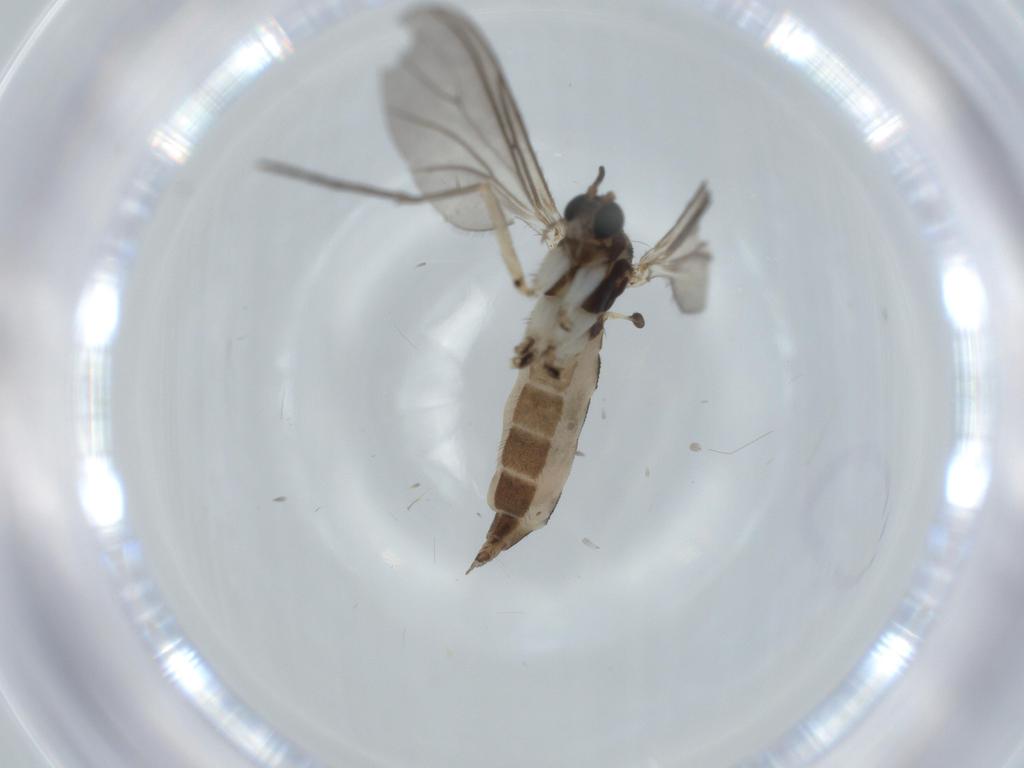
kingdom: Animalia
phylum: Arthropoda
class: Insecta
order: Diptera
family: Sciaridae
